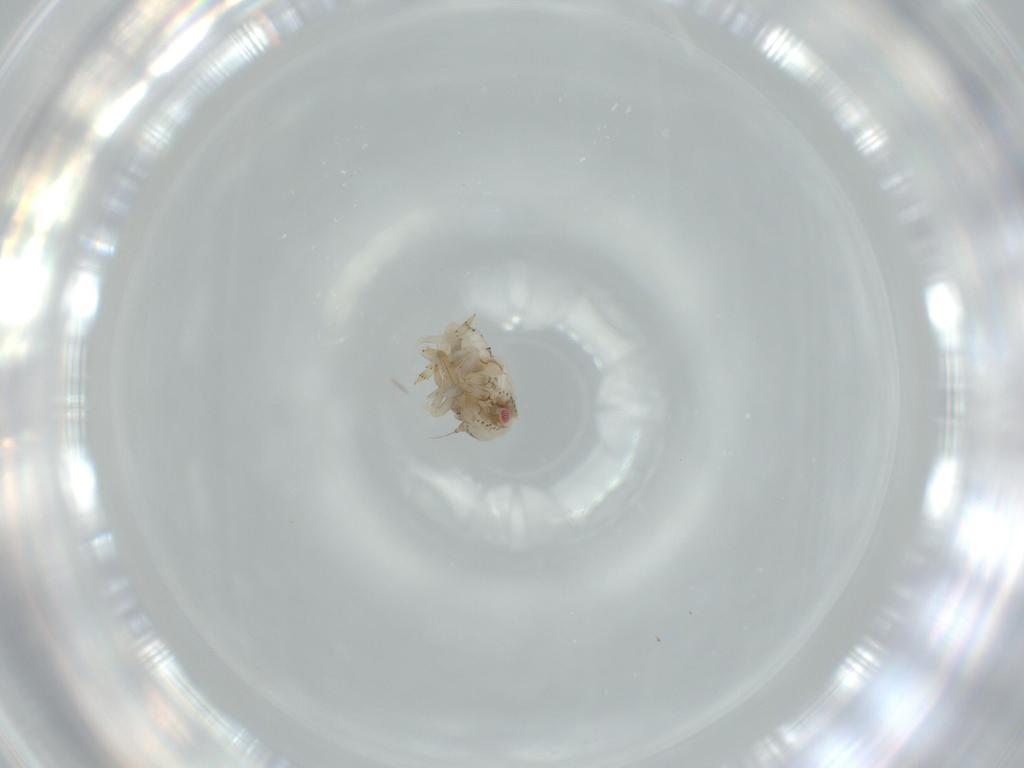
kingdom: Animalia
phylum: Arthropoda
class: Insecta
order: Hemiptera
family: Acanaloniidae
